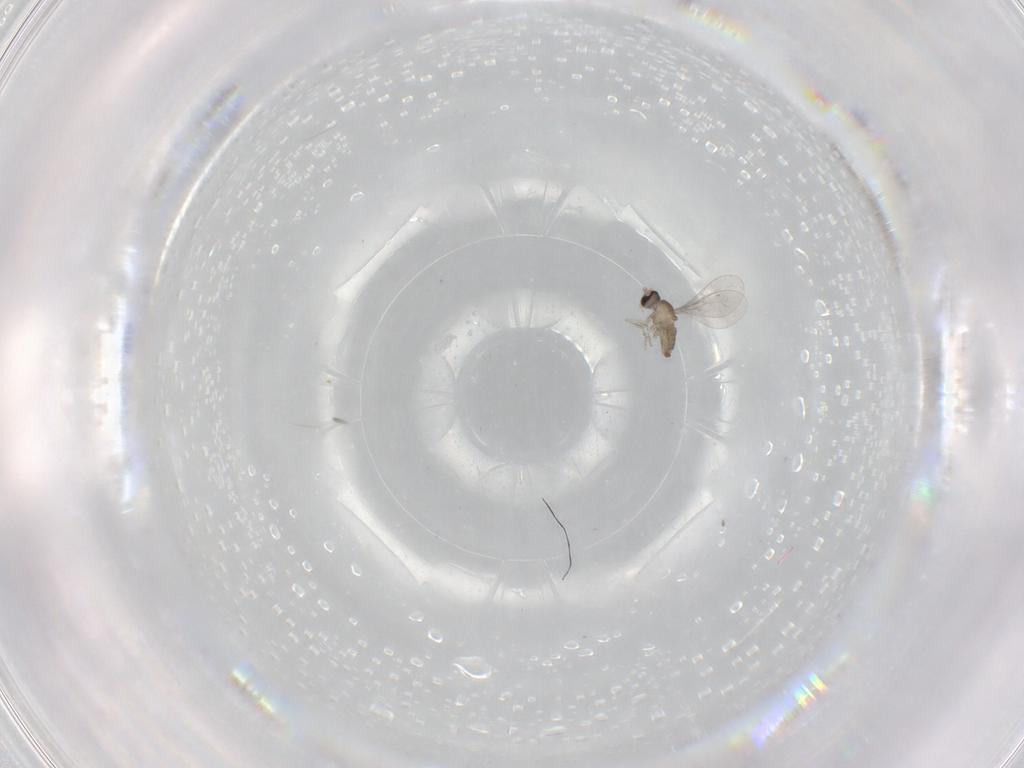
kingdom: Animalia
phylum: Arthropoda
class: Insecta
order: Diptera
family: Cecidomyiidae
